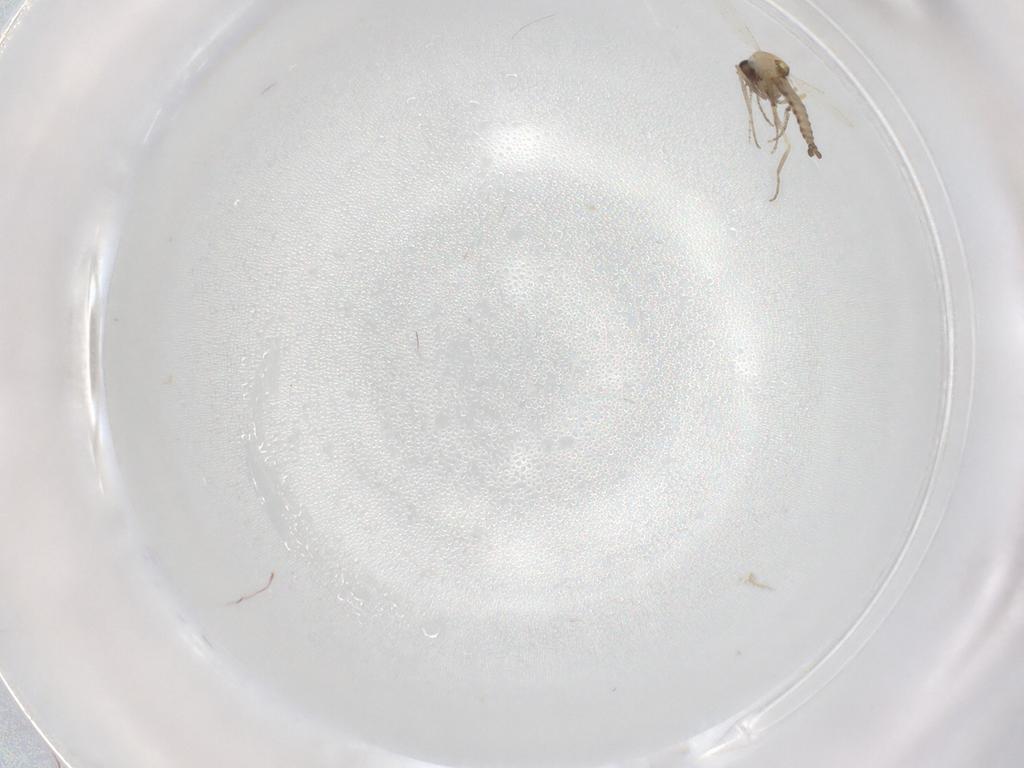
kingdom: Animalia
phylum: Arthropoda
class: Insecta
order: Diptera
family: Ceratopogonidae
